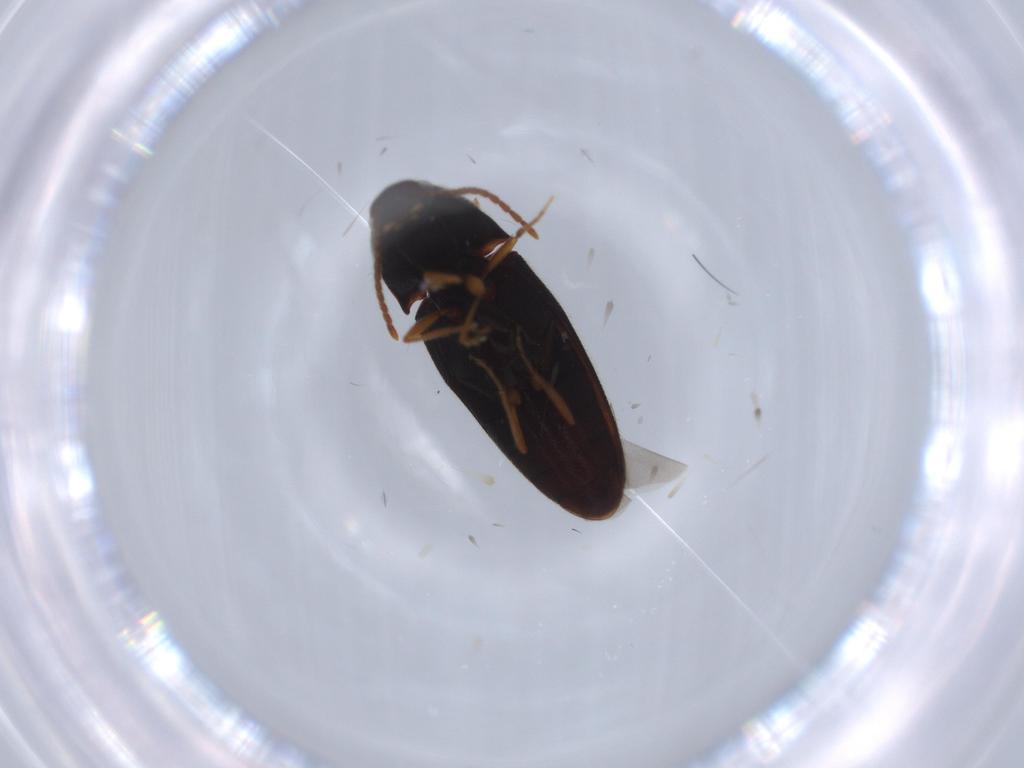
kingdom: Animalia
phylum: Arthropoda
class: Insecta
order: Coleoptera
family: Elateridae
